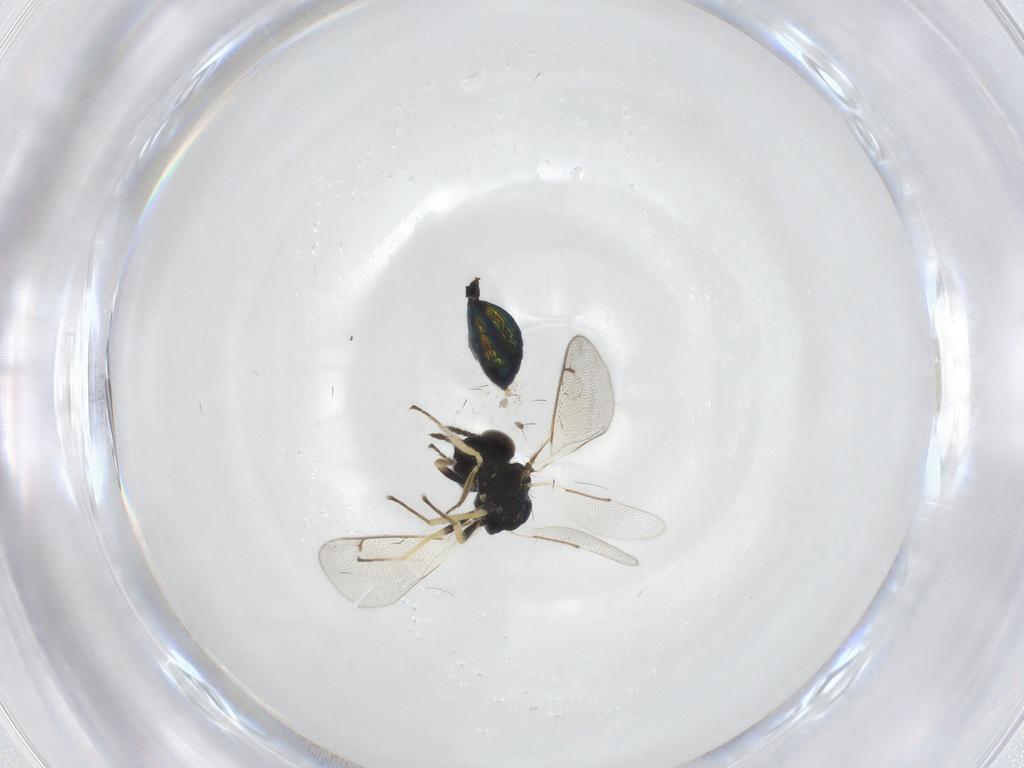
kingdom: Animalia
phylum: Arthropoda
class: Insecta
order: Hymenoptera
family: Eulophidae
